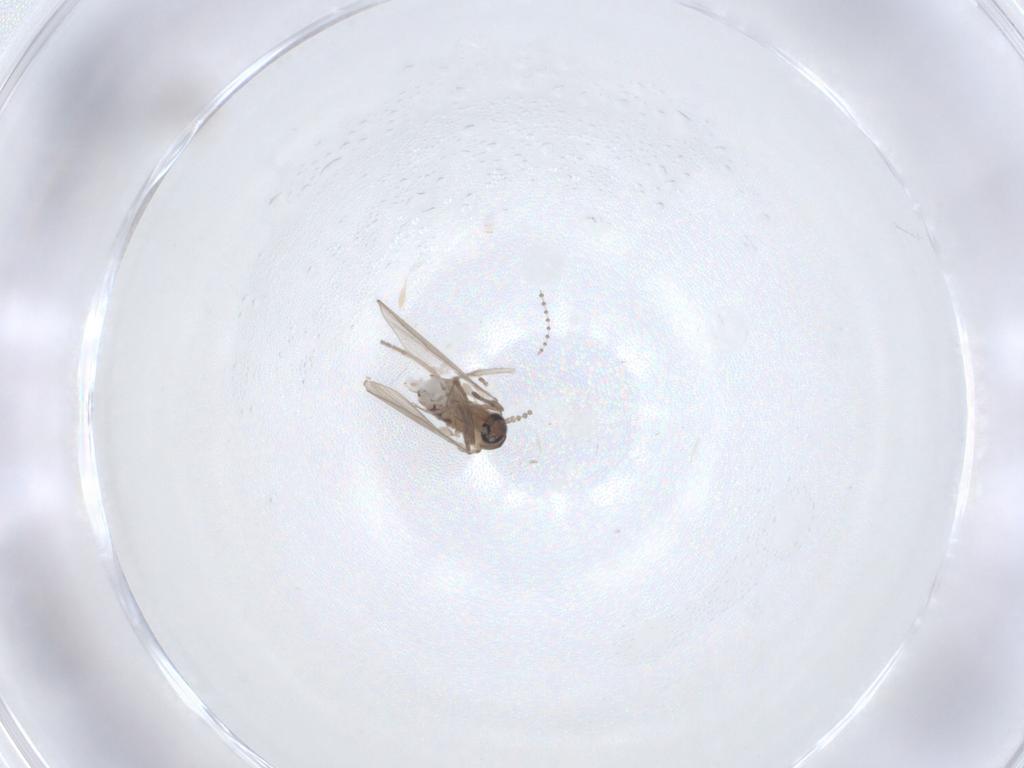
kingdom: Animalia
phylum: Arthropoda
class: Insecta
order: Diptera
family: Psychodidae
